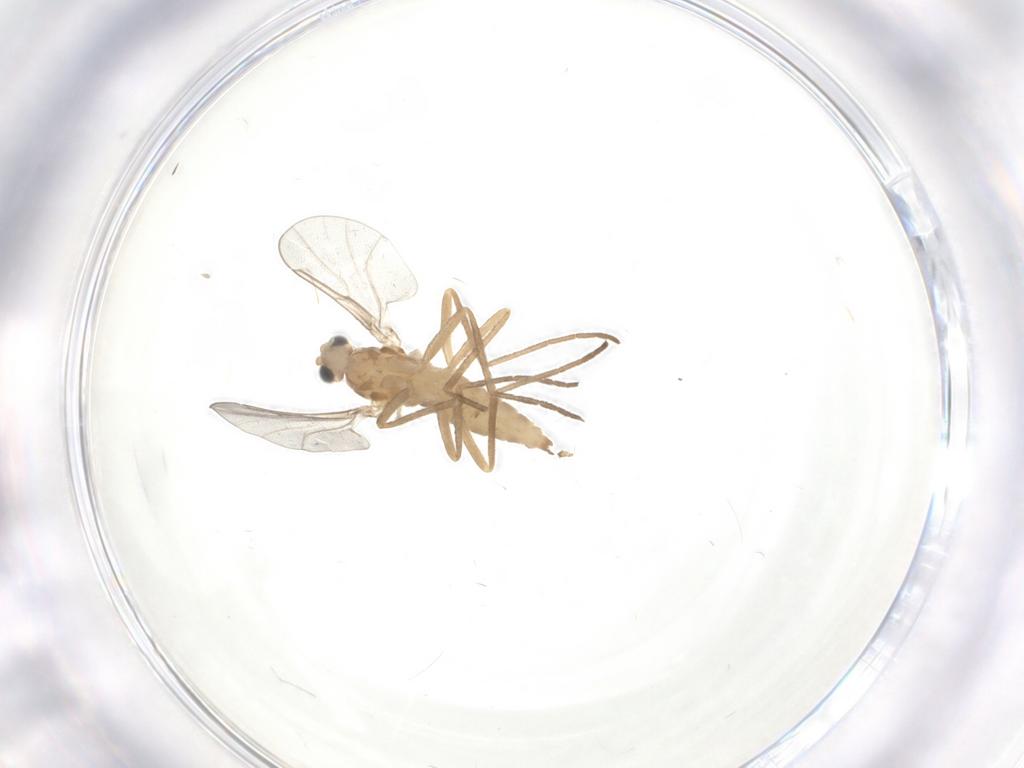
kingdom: Animalia
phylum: Arthropoda
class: Insecta
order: Diptera
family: Cecidomyiidae
